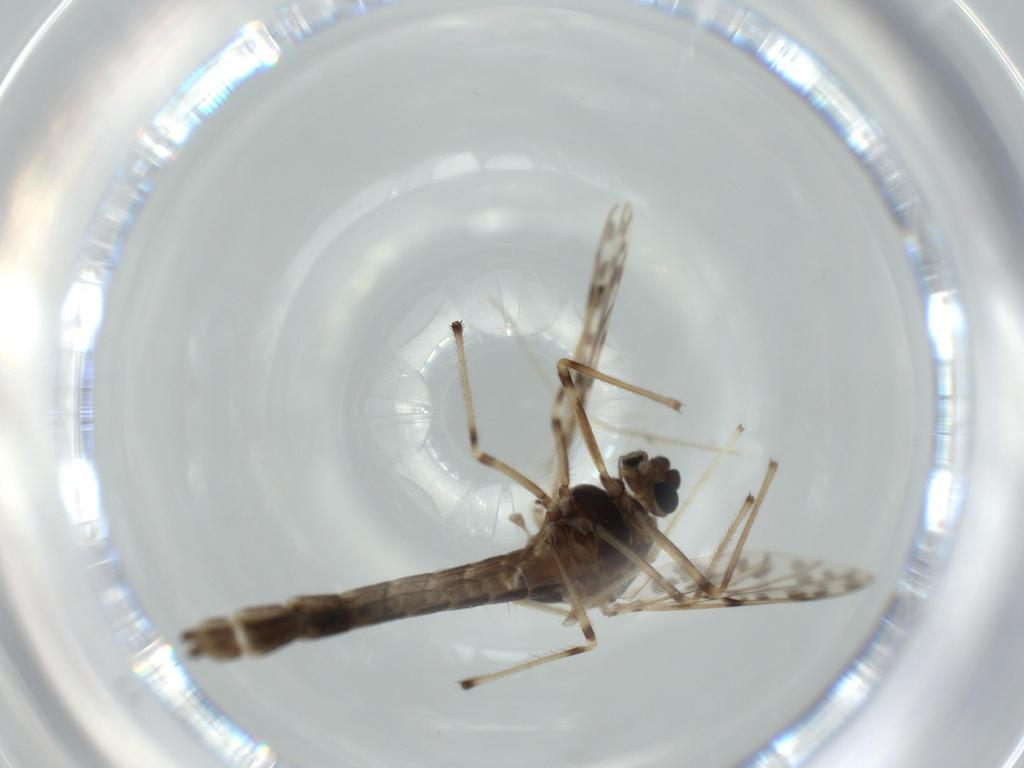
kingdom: Animalia
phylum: Arthropoda
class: Insecta
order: Diptera
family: Chironomidae
